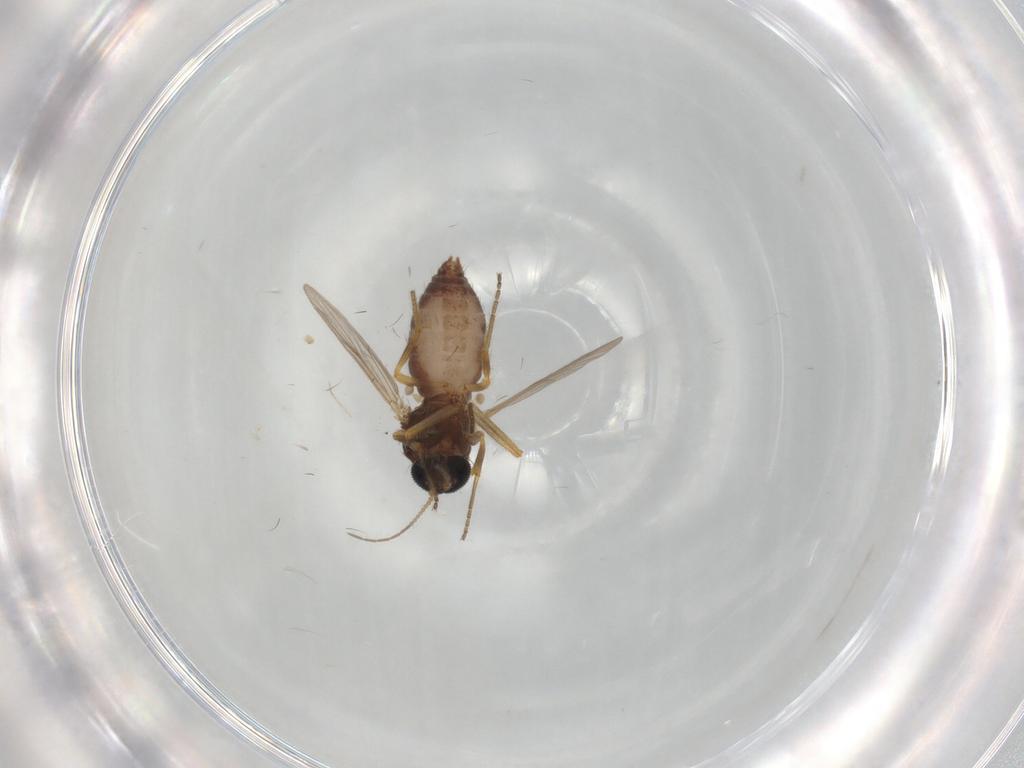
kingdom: Animalia
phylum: Arthropoda
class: Insecta
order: Diptera
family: Ceratopogonidae
